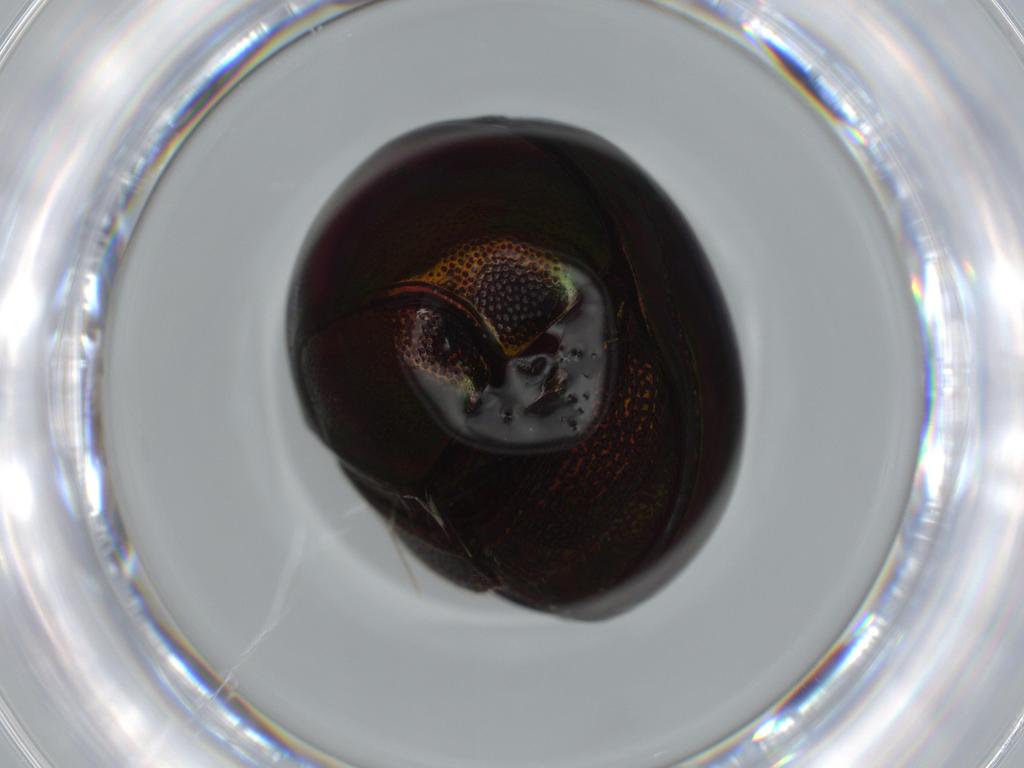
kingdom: Animalia
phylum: Arthropoda
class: Insecta
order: Coleoptera
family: Hybosoridae
